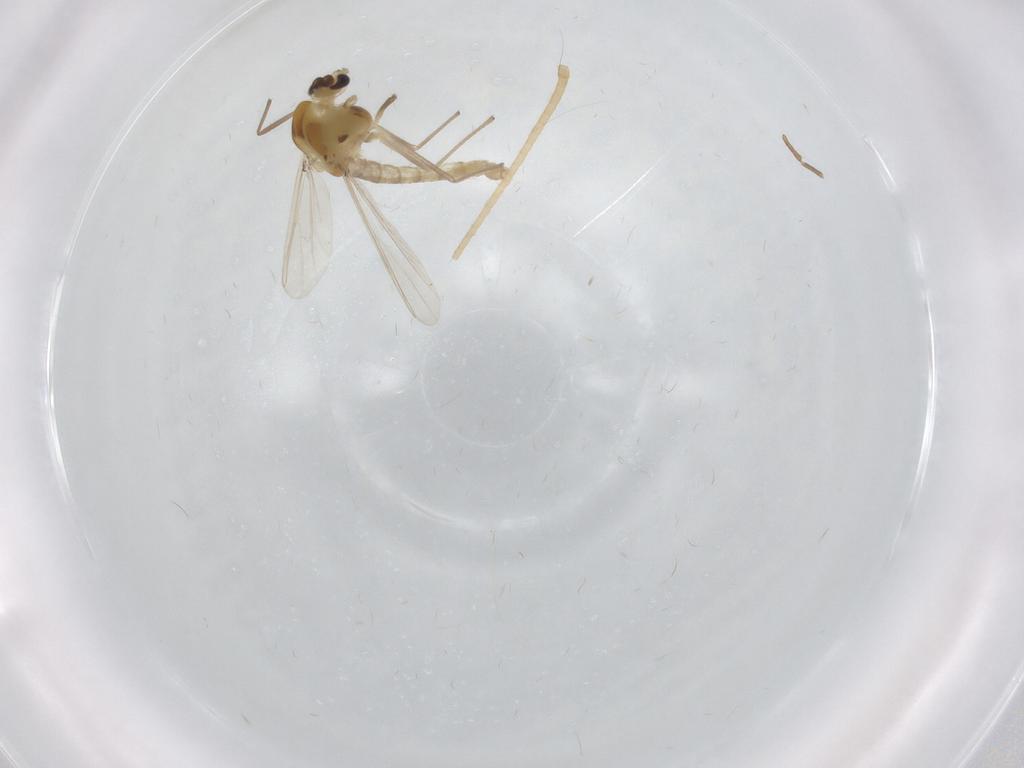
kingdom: Animalia
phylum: Arthropoda
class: Insecta
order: Diptera
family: Chironomidae
